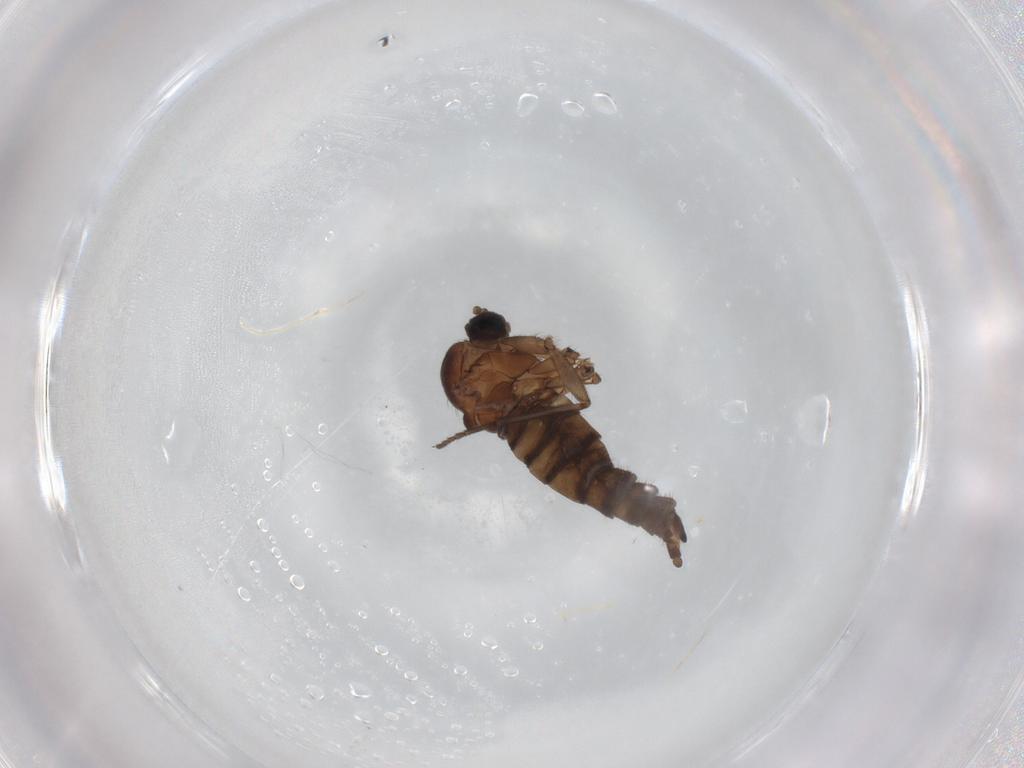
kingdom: Animalia
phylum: Arthropoda
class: Insecta
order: Diptera
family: Sciaridae
